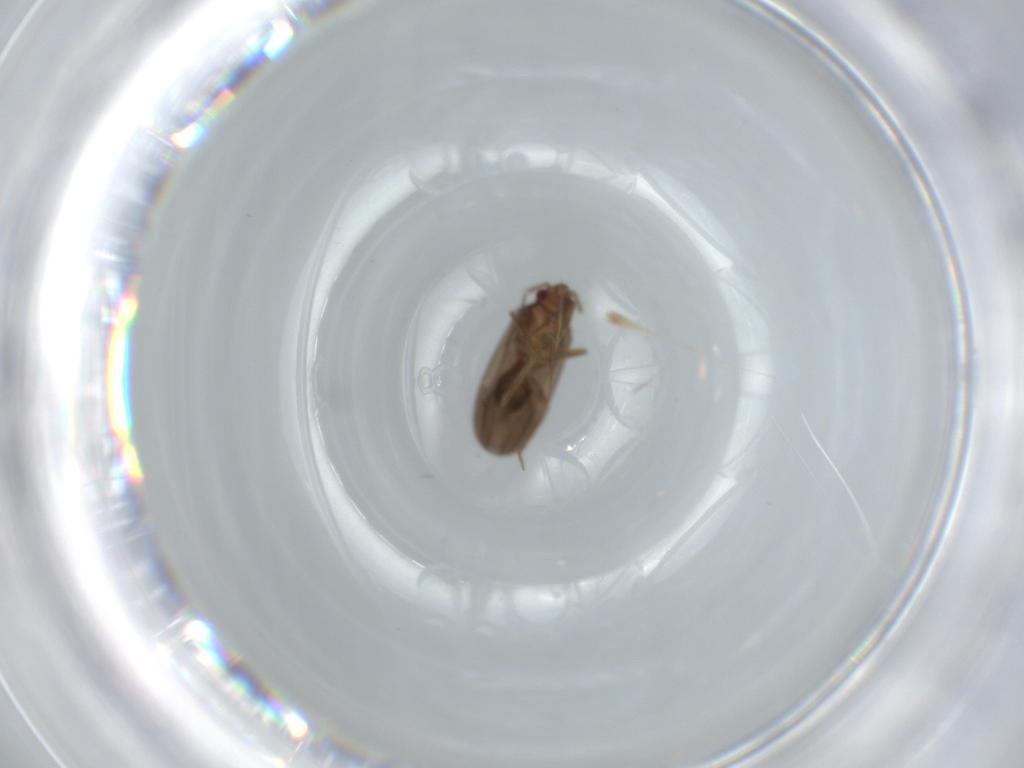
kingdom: Animalia
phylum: Arthropoda
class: Insecta
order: Hemiptera
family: Ceratocombidae
